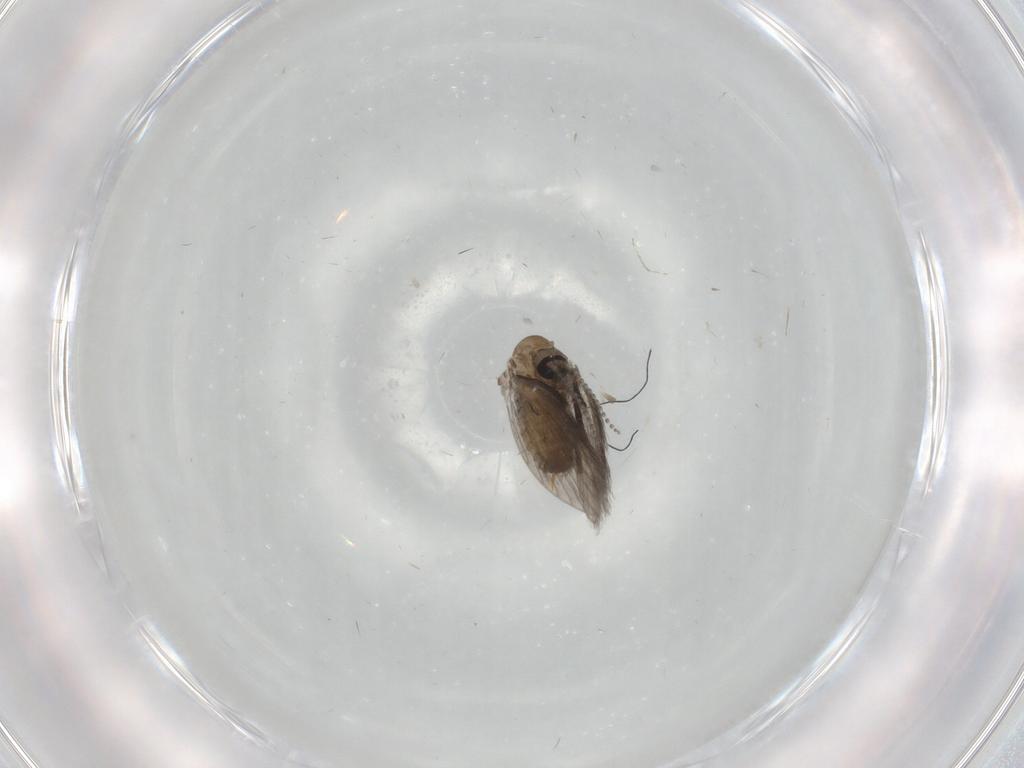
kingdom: Animalia
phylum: Arthropoda
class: Insecta
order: Diptera
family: Psychodidae
